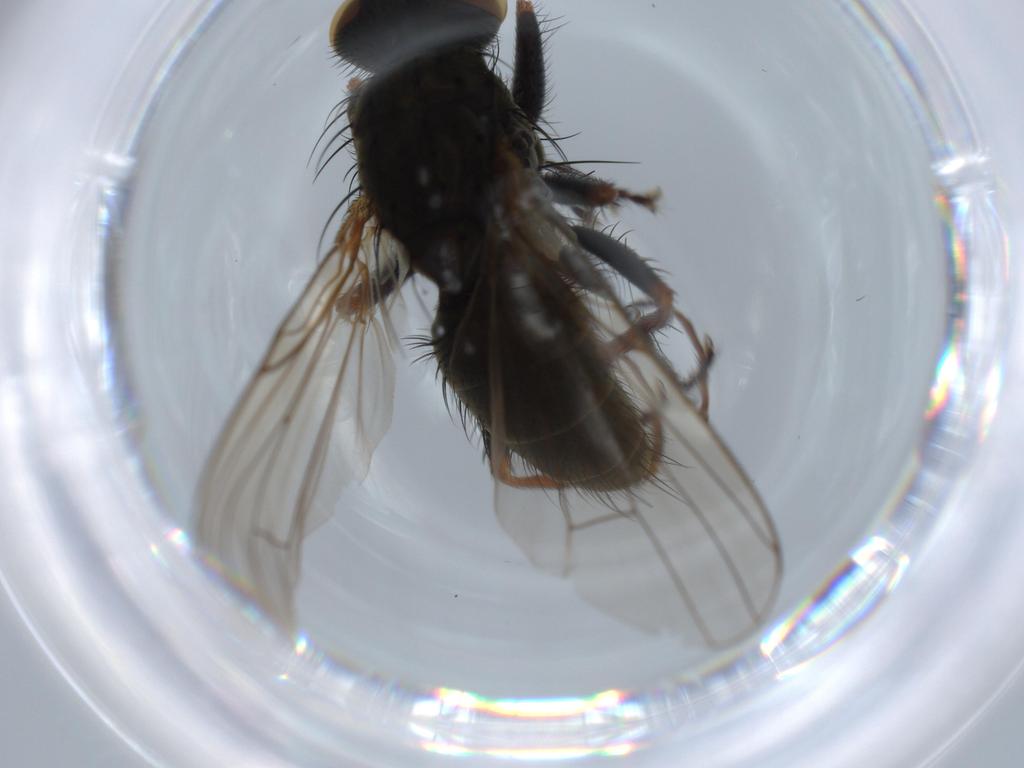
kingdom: Animalia
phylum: Arthropoda
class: Insecta
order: Diptera
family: Muscidae
